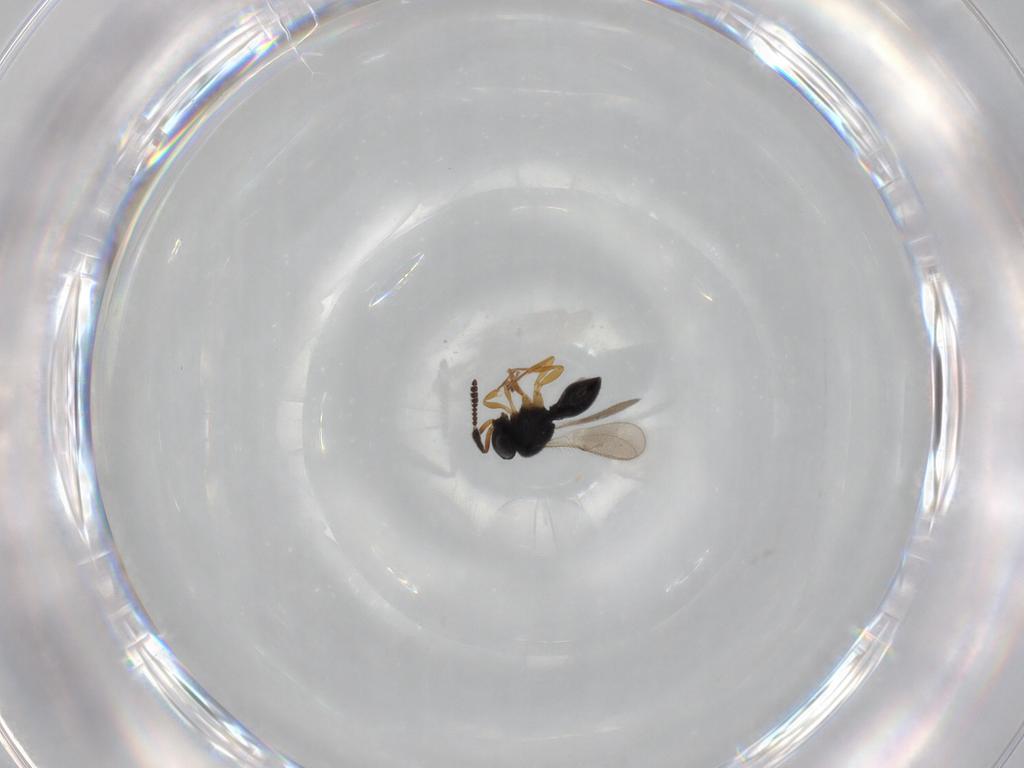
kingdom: Animalia
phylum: Arthropoda
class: Insecta
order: Hymenoptera
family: Scelionidae
